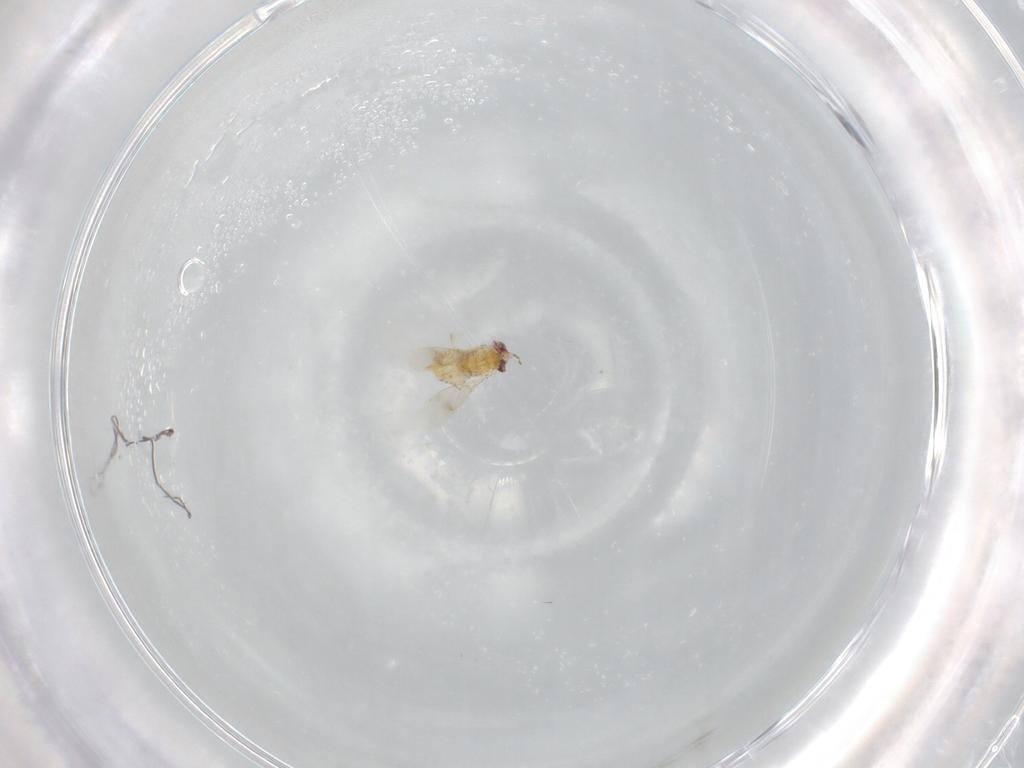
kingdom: Animalia
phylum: Arthropoda
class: Insecta
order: Hymenoptera
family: Aphelinidae
